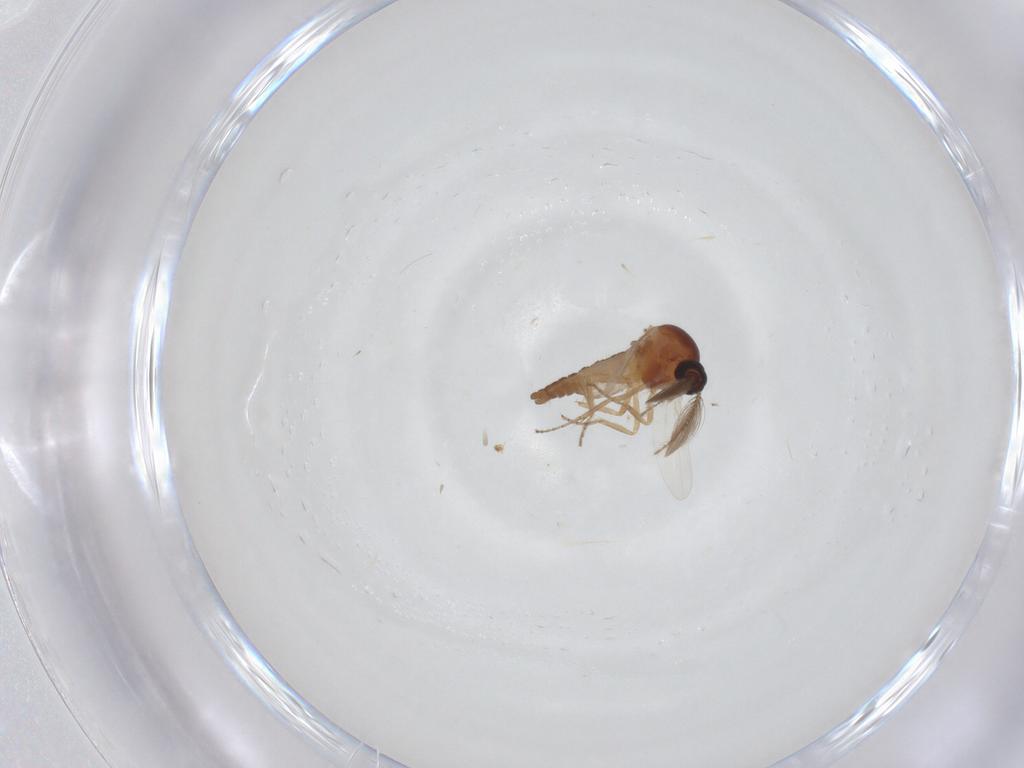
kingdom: Animalia
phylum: Arthropoda
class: Insecta
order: Diptera
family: Ceratopogonidae
